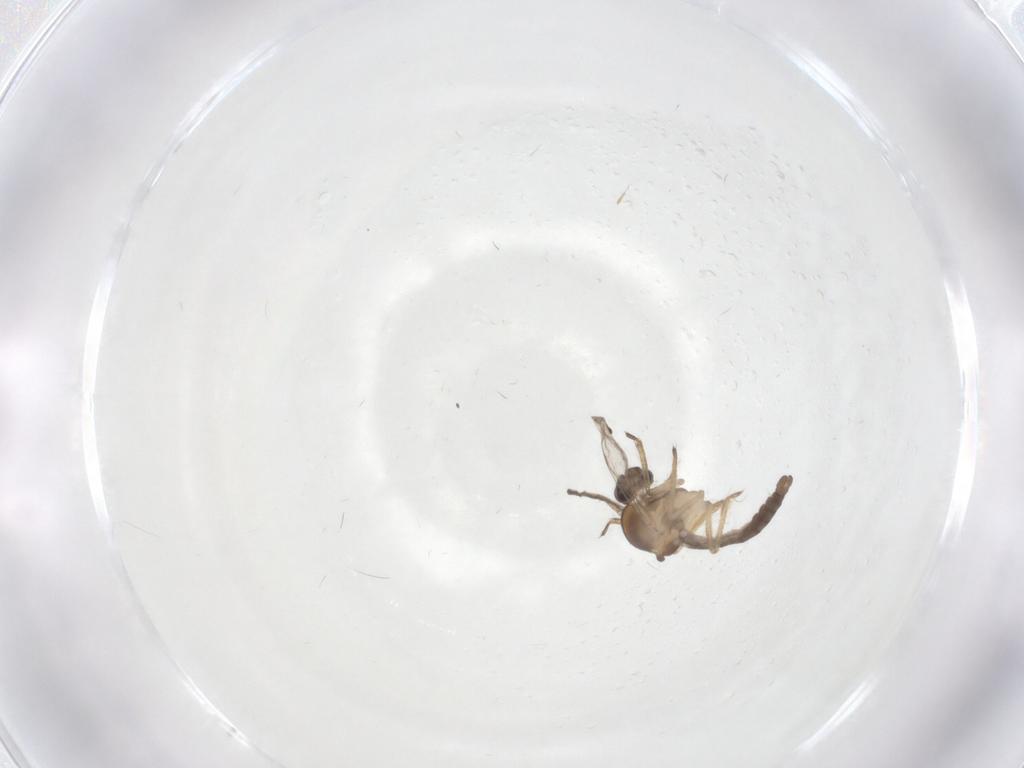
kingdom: Animalia
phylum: Arthropoda
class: Insecta
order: Diptera
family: Ceratopogonidae
